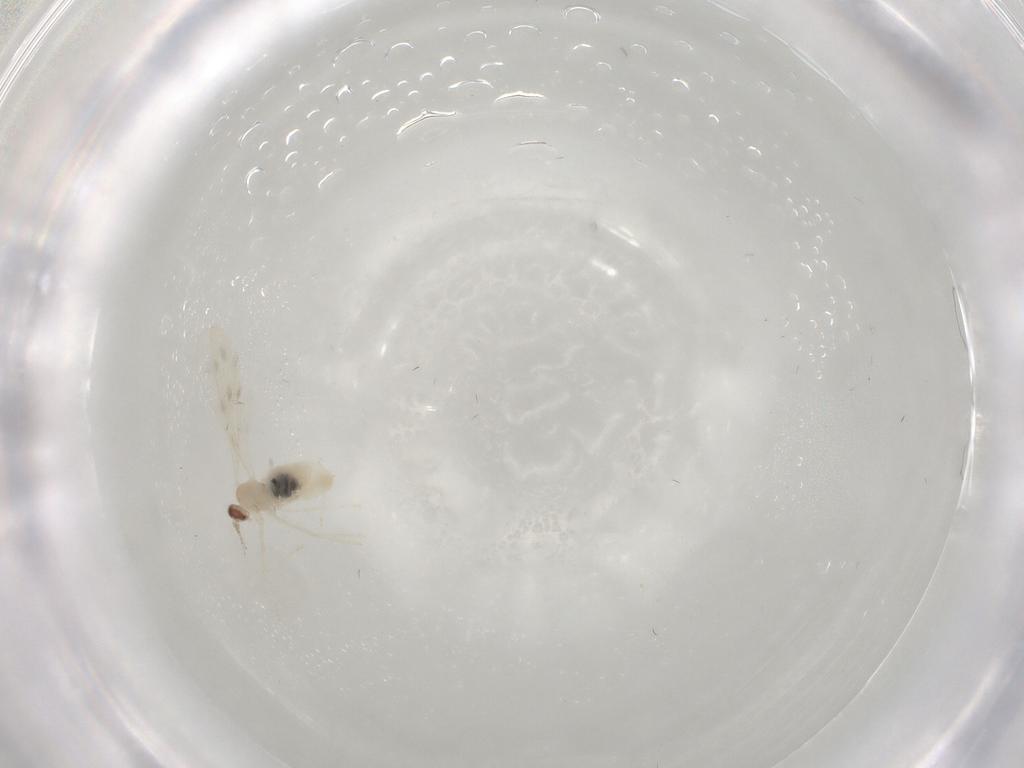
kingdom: Animalia
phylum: Arthropoda
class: Insecta
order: Diptera
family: Cecidomyiidae
